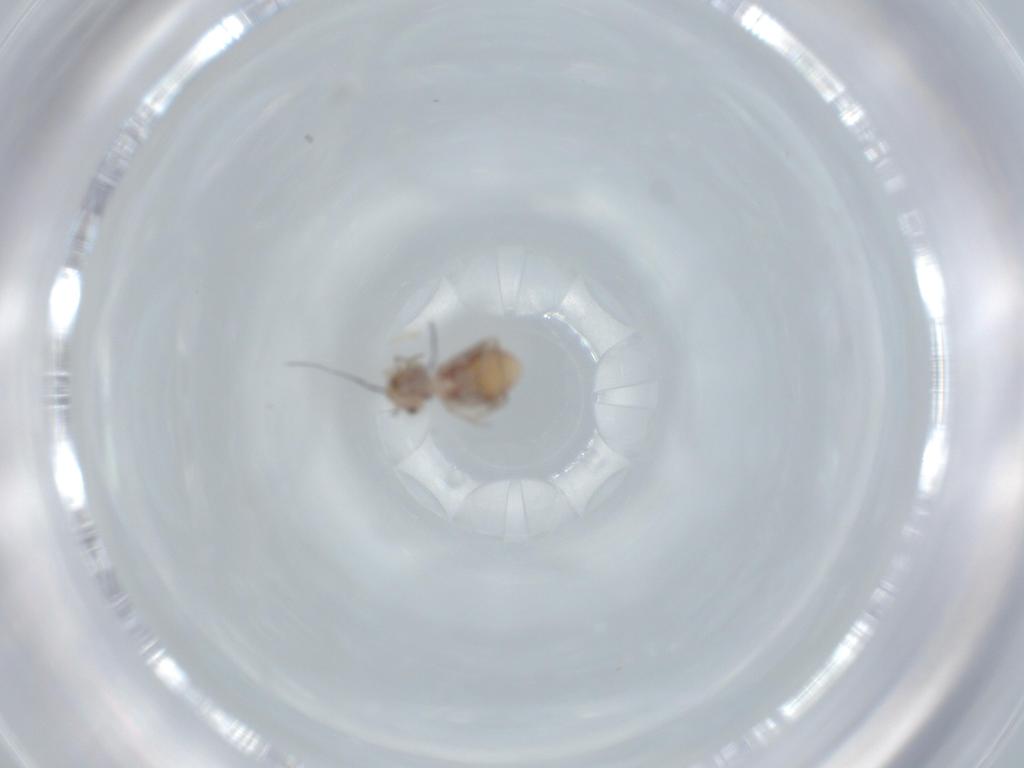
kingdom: Animalia
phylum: Arthropoda
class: Insecta
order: Psocodea
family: Ectopsocidae
